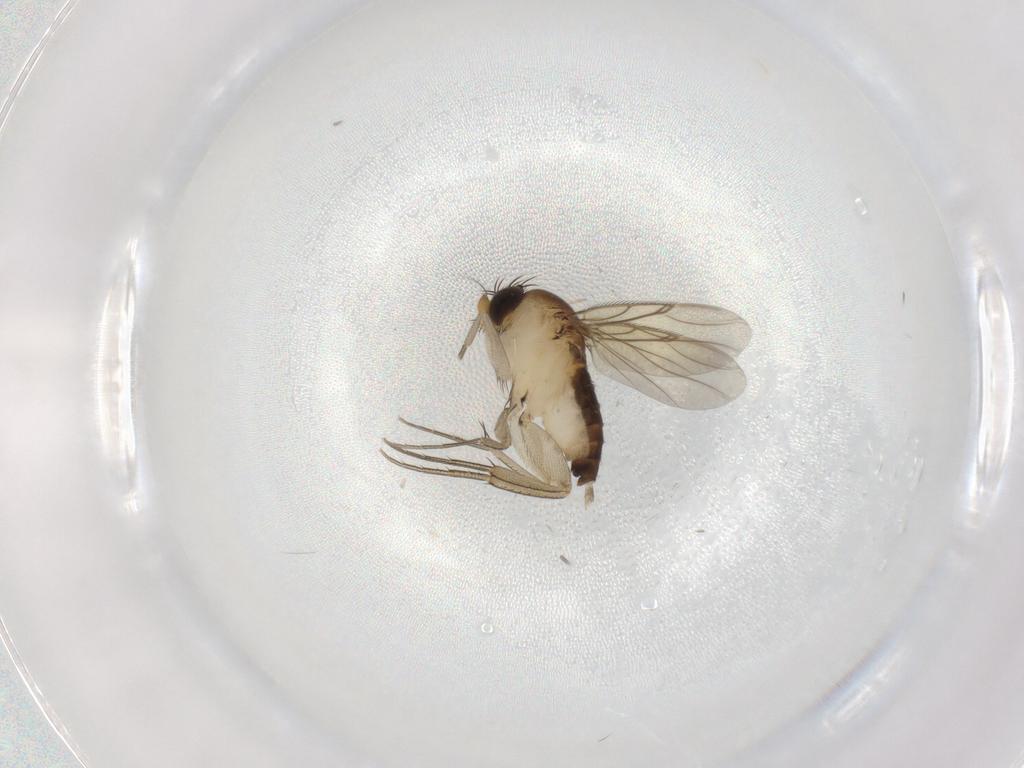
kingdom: Animalia
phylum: Arthropoda
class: Insecta
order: Diptera
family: Phoridae
